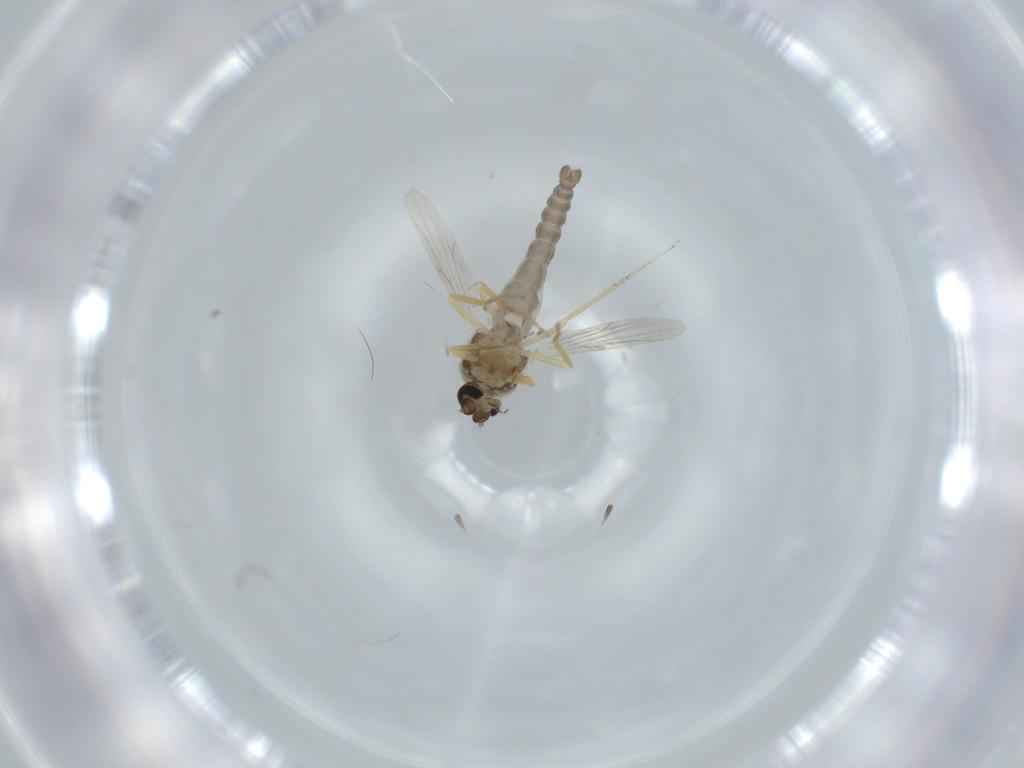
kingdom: Animalia
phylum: Arthropoda
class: Insecta
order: Diptera
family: Ceratopogonidae
